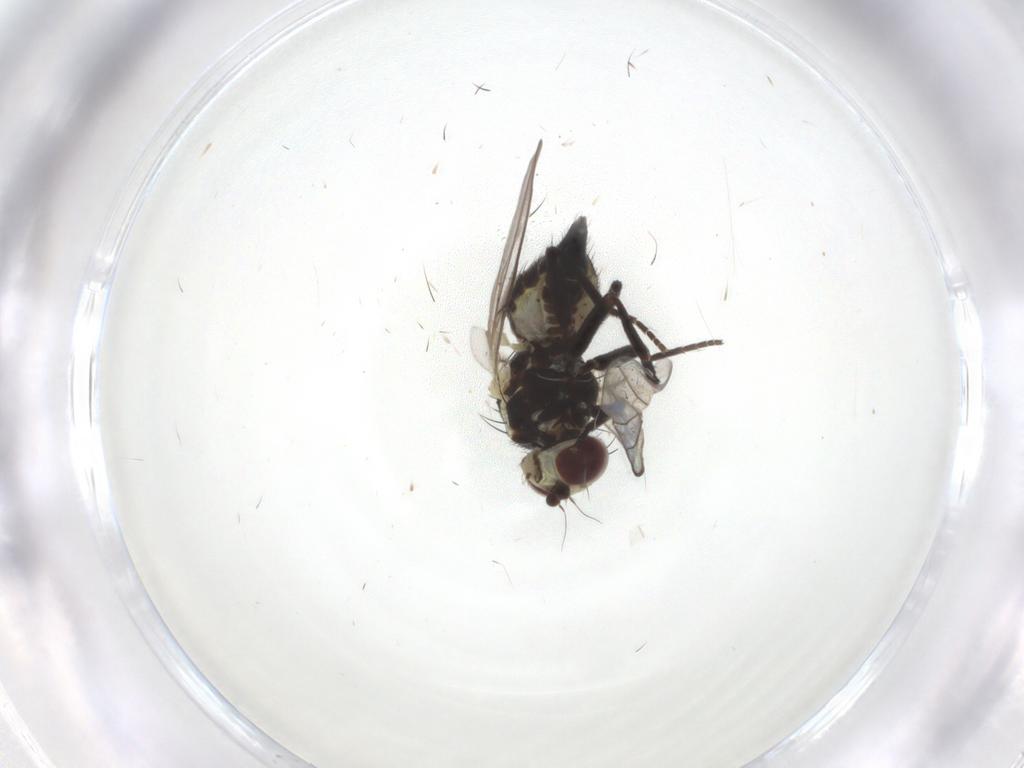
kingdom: Animalia
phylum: Arthropoda
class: Insecta
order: Diptera
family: Agromyzidae
